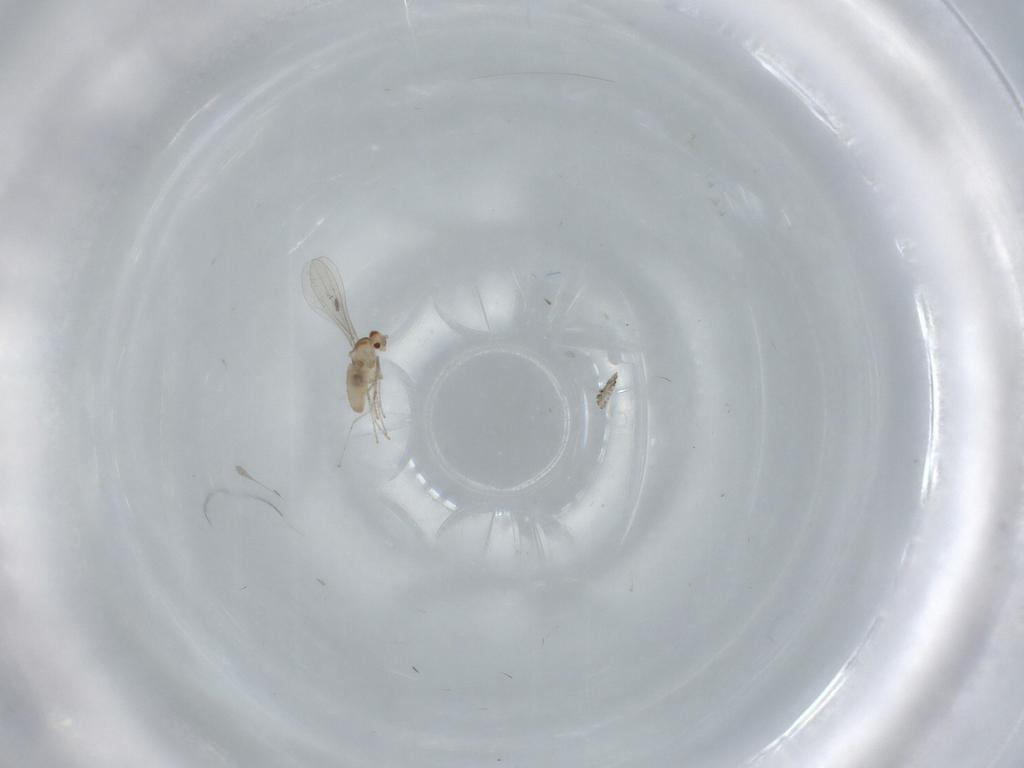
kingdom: Animalia
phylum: Arthropoda
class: Insecta
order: Diptera
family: Cecidomyiidae
